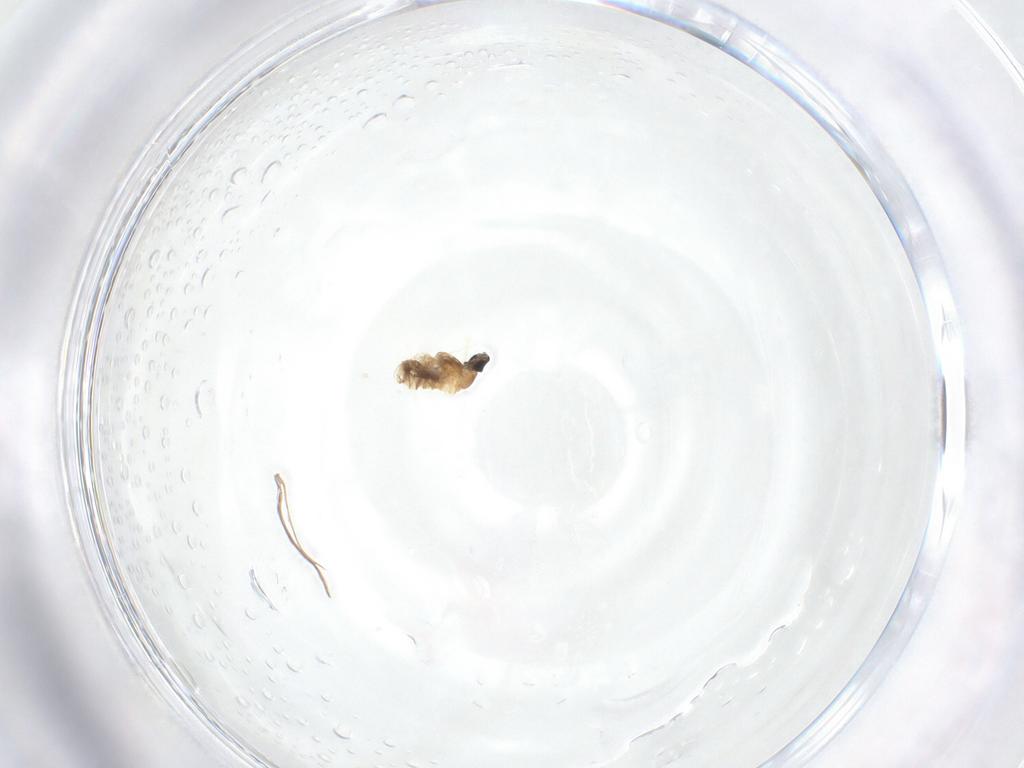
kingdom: Animalia
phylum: Arthropoda
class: Insecta
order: Diptera
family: Cecidomyiidae
